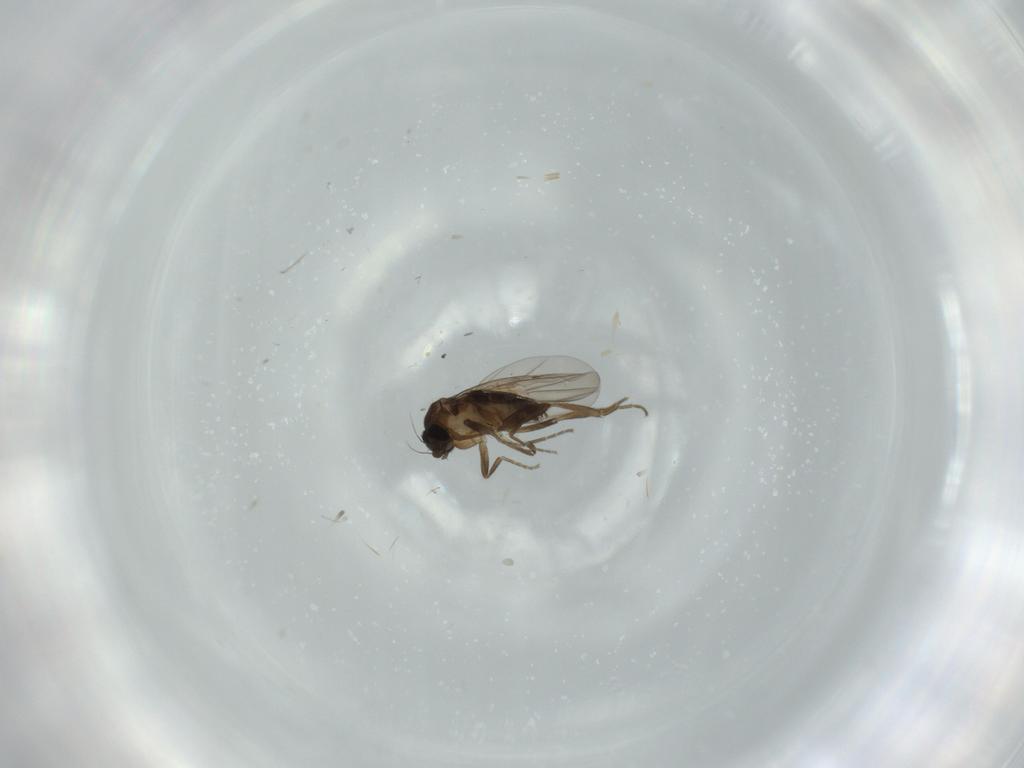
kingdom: Animalia
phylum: Arthropoda
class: Insecta
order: Diptera
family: Phoridae
